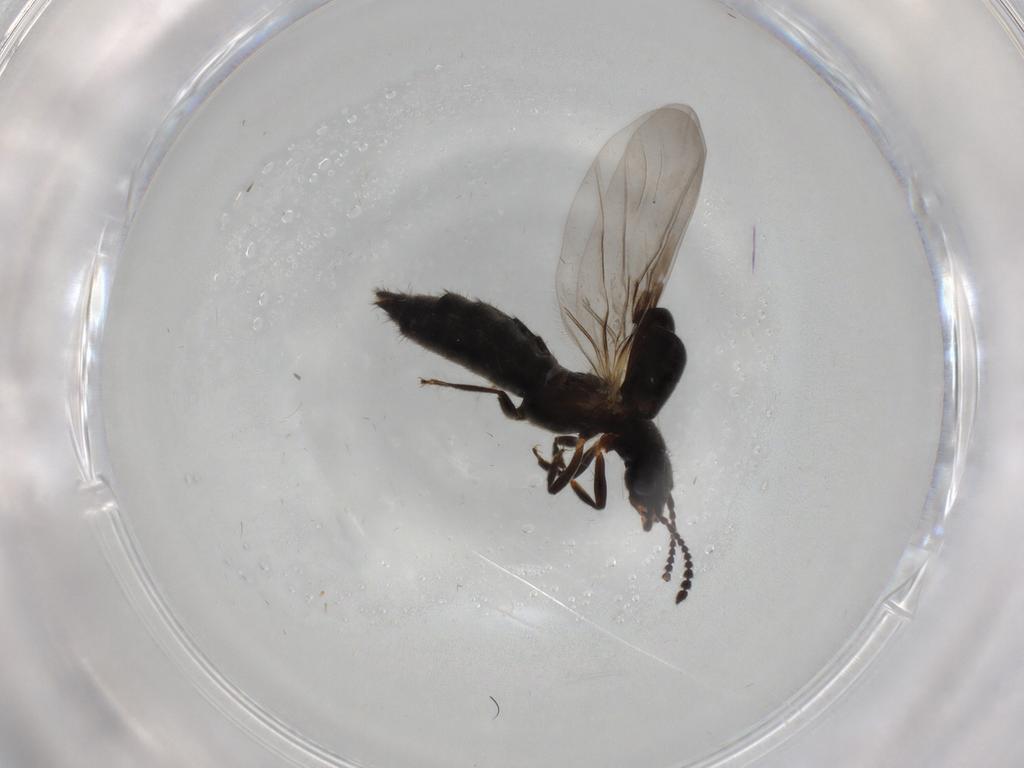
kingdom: Animalia
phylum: Arthropoda
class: Insecta
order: Coleoptera
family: Staphylinidae
